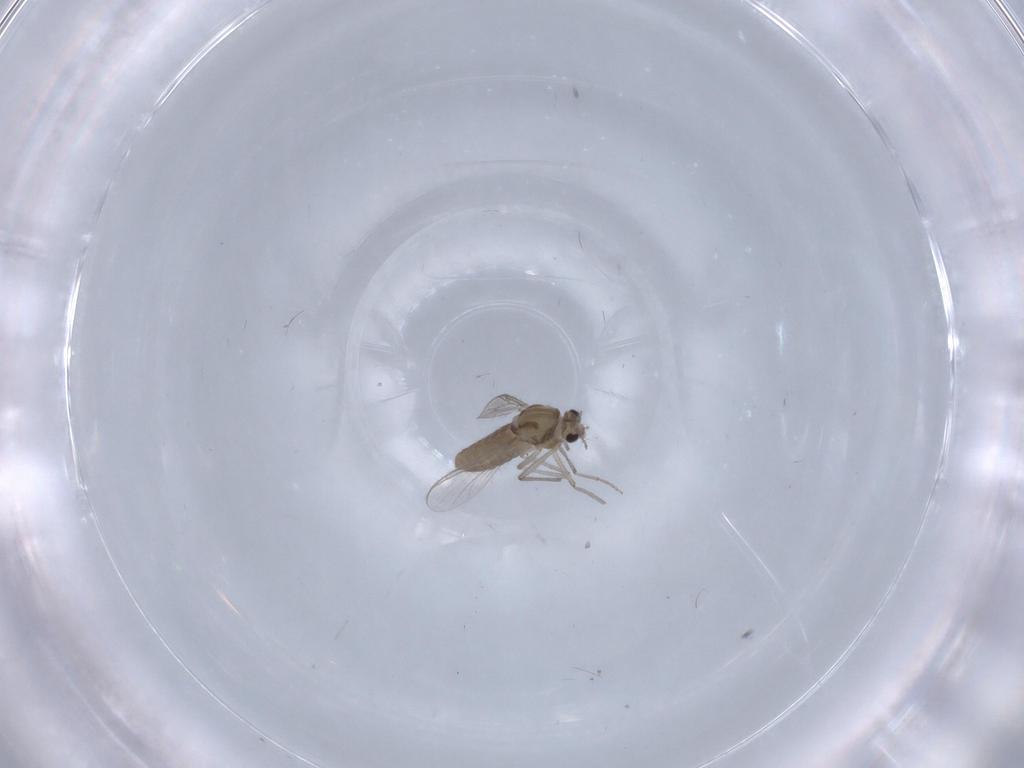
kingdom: Animalia
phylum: Arthropoda
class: Insecta
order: Diptera
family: Chironomidae
